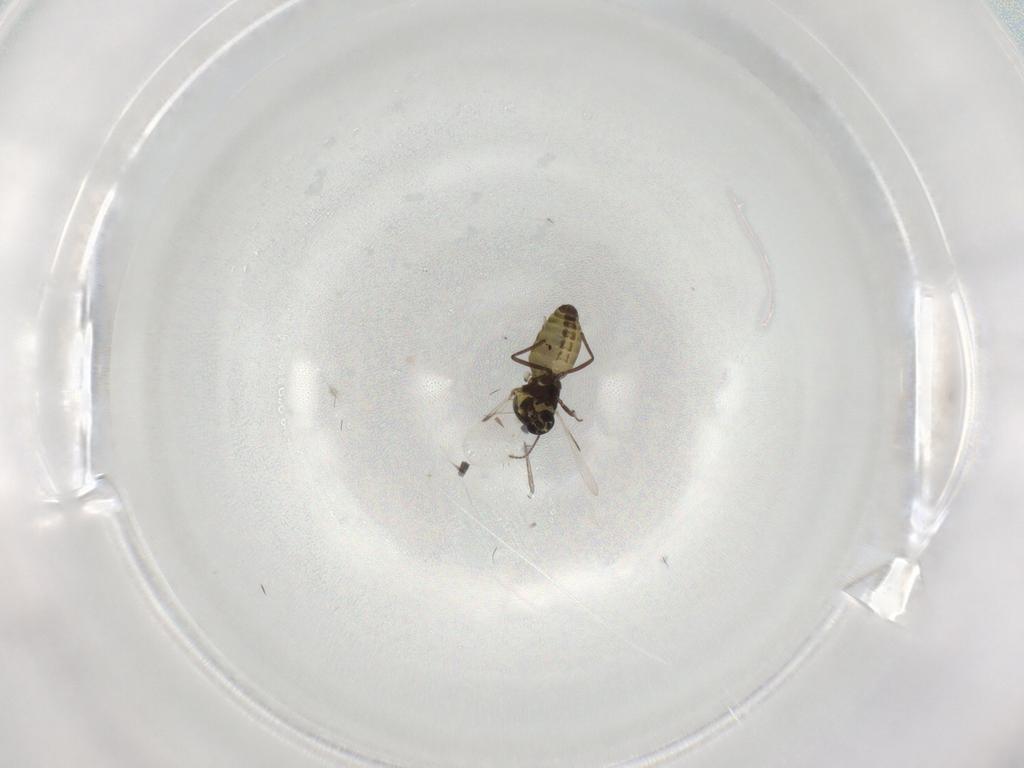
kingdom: Animalia
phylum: Arthropoda
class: Insecta
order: Diptera
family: Ceratopogonidae
